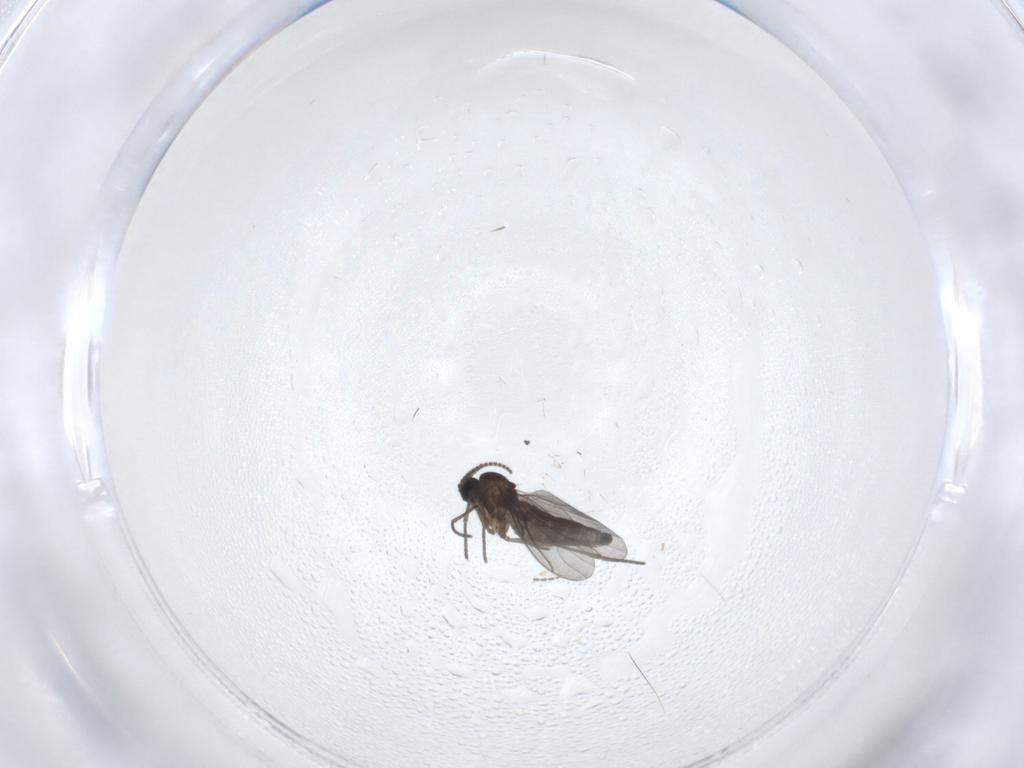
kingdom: Animalia
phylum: Arthropoda
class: Insecta
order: Diptera
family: Sciaridae
